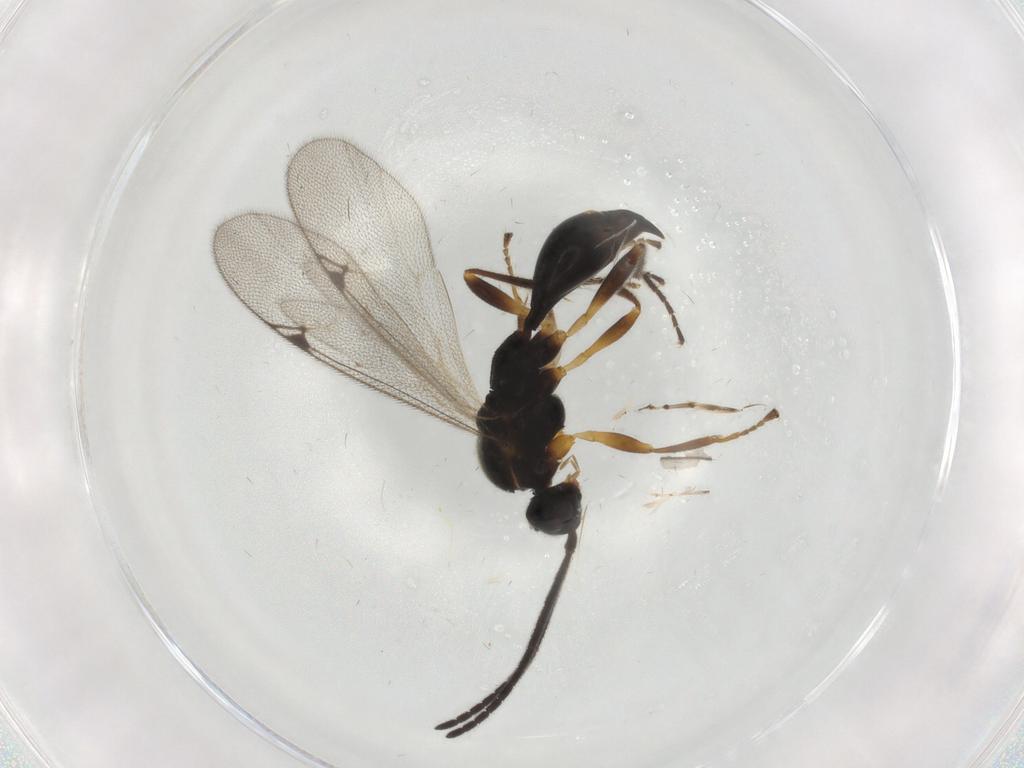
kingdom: Animalia
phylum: Arthropoda
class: Insecta
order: Hymenoptera
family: Proctotrupidae
